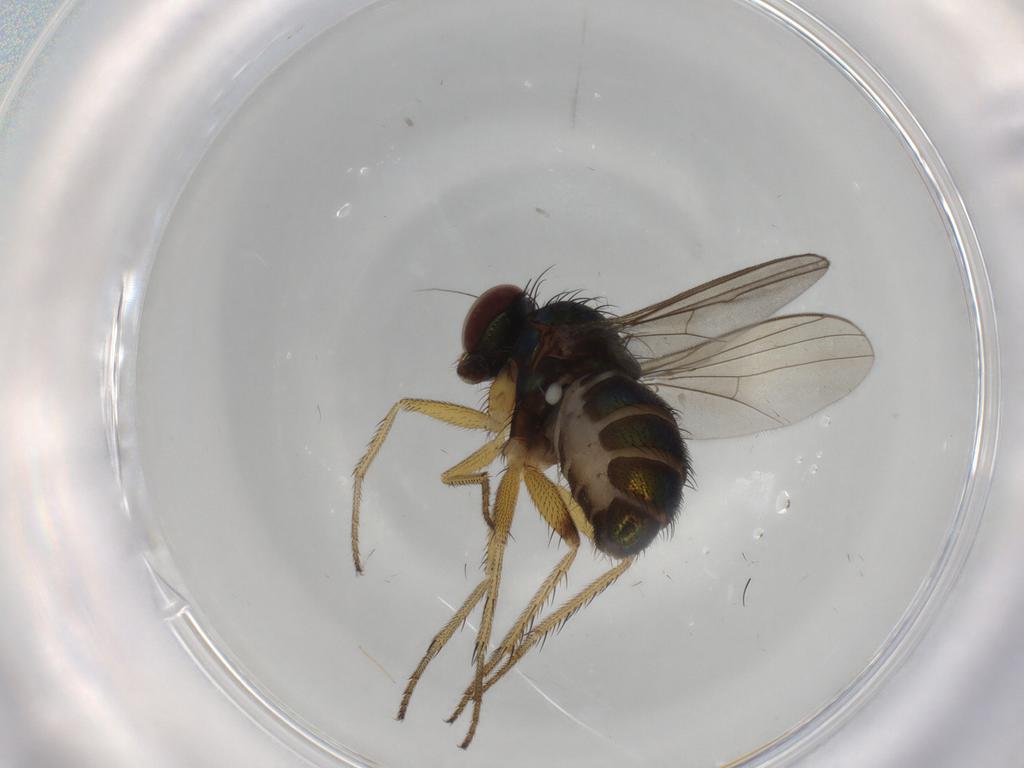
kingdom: Animalia
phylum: Arthropoda
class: Insecta
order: Diptera
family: Dolichopodidae
